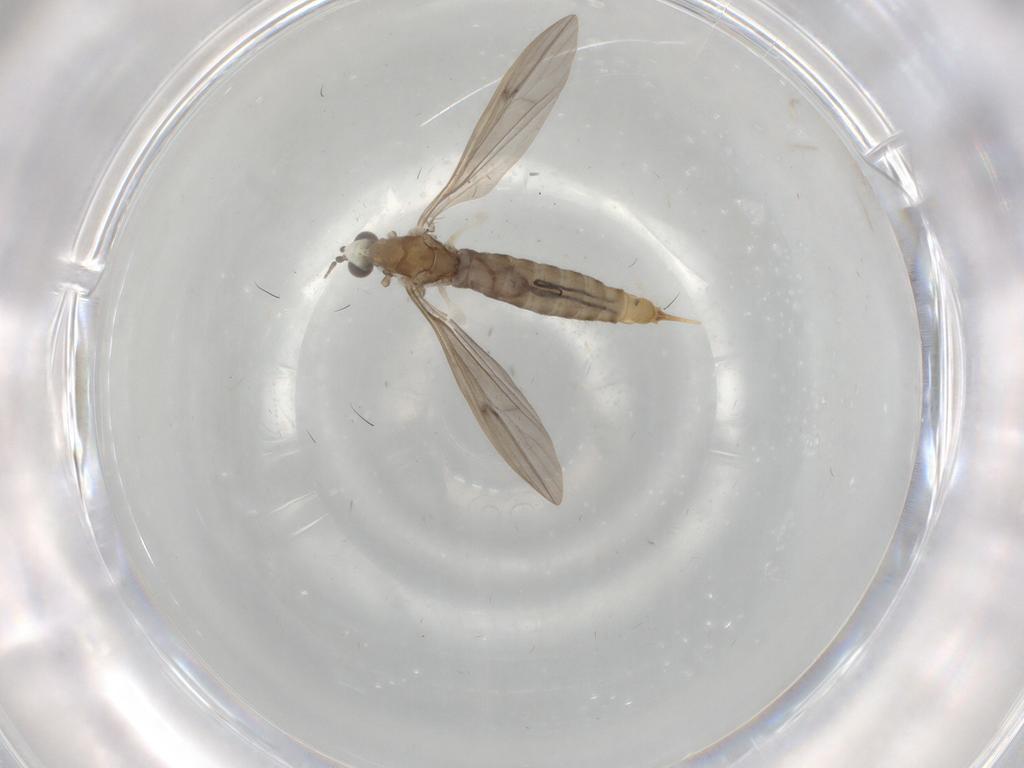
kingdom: Animalia
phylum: Arthropoda
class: Insecta
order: Diptera
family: Limoniidae
